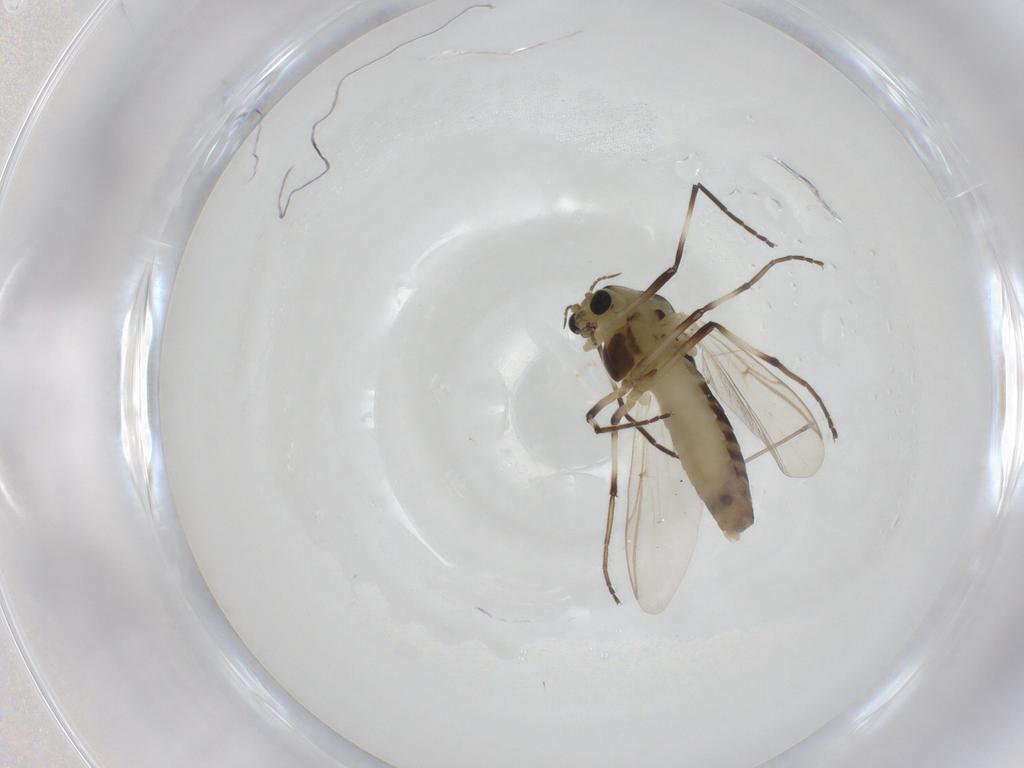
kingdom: Animalia
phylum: Arthropoda
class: Insecta
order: Diptera
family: Chironomidae
